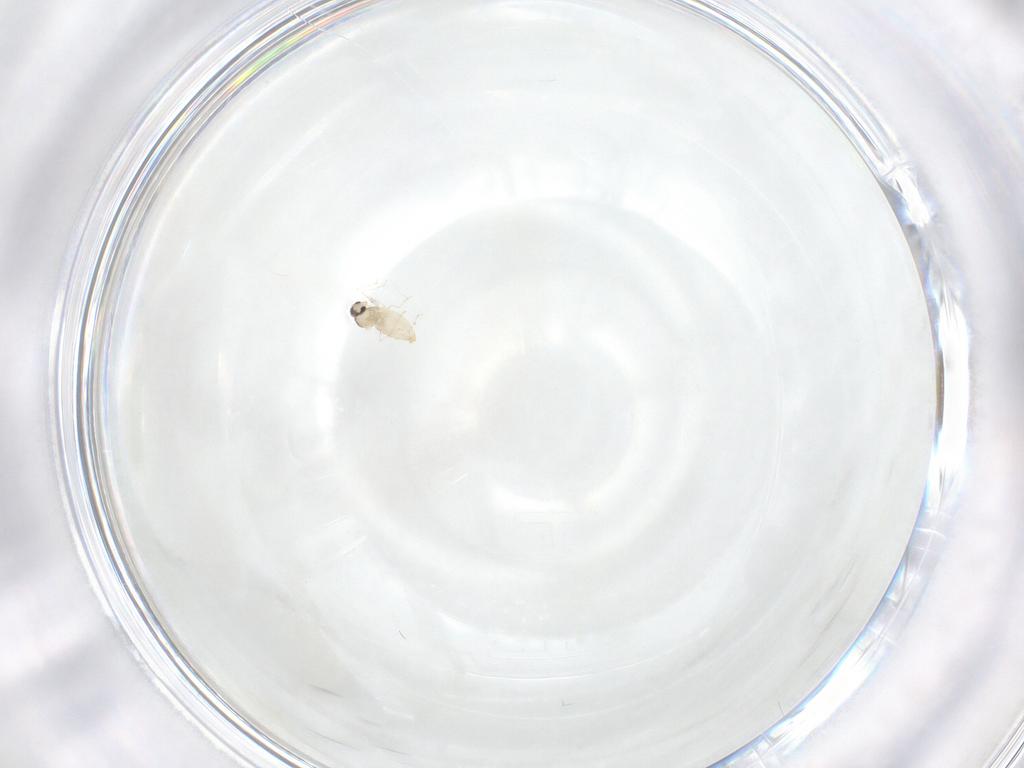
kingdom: Animalia
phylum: Arthropoda
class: Insecta
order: Diptera
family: Cecidomyiidae
